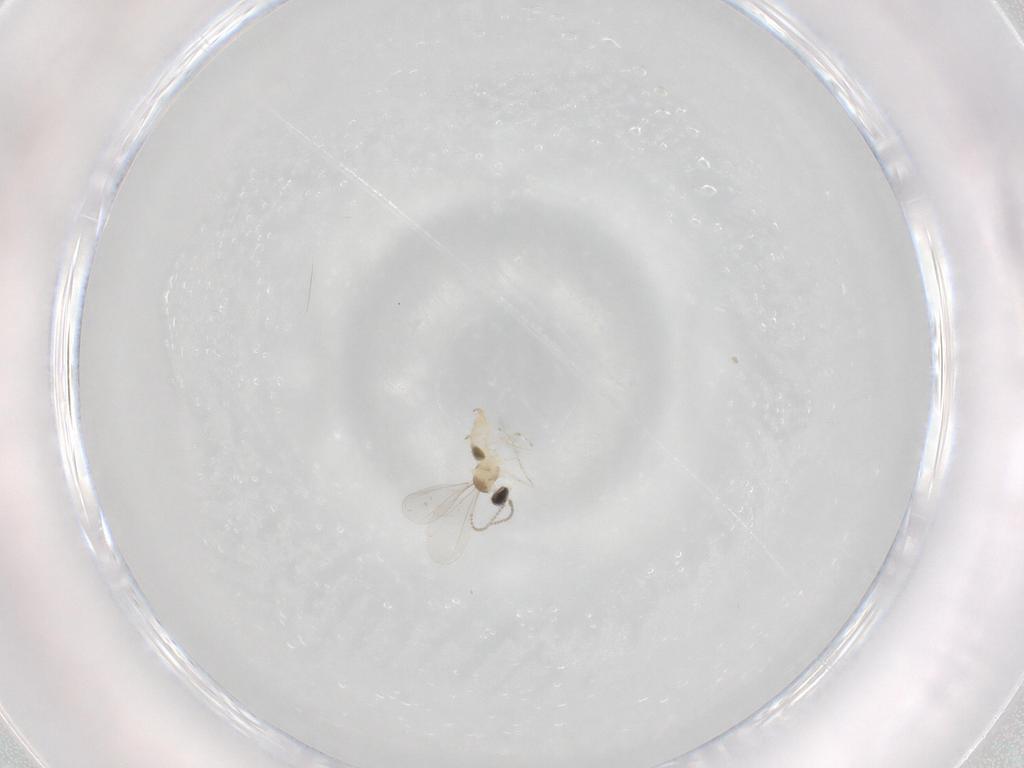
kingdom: Animalia
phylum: Arthropoda
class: Insecta
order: Diptera
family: Cecidomyiidae
